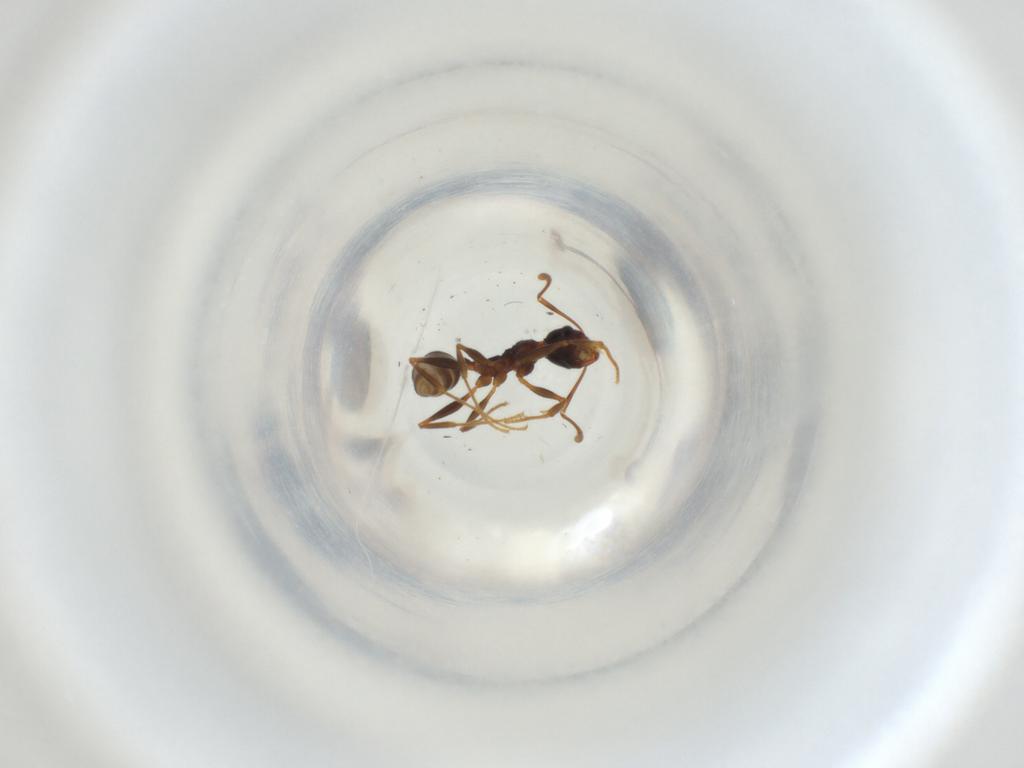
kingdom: Animalia
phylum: Arthropoda
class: Insecta
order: Hymenoptera
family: Formicidae
